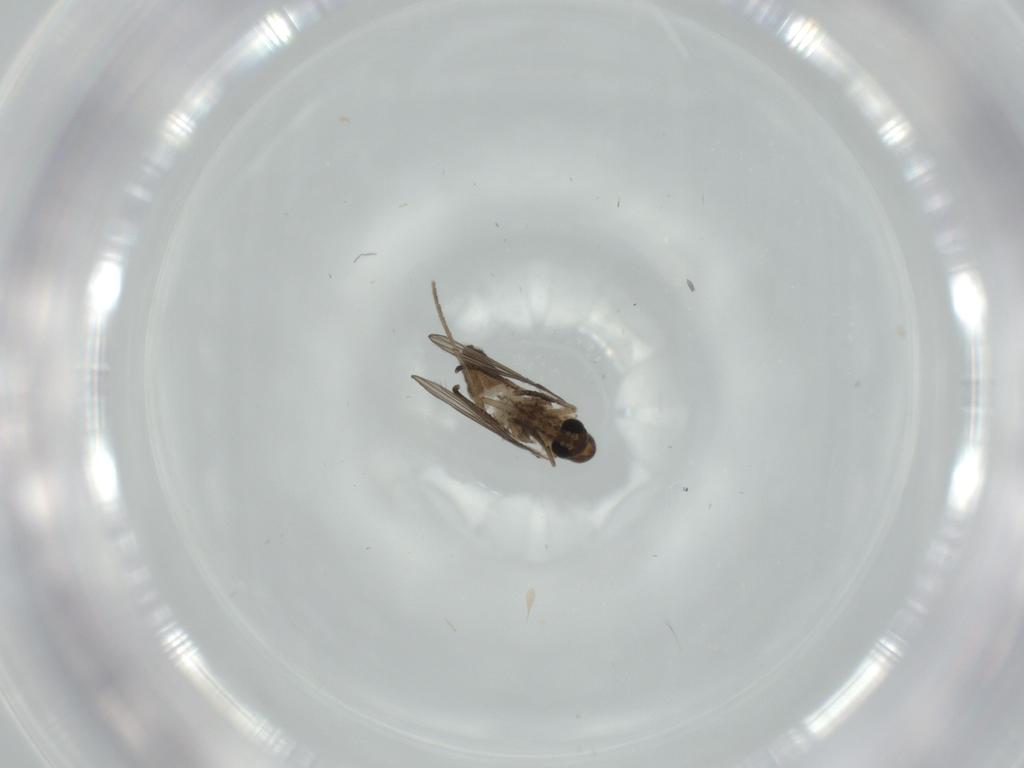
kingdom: Animalia
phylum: Arthropoda
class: Insecta
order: Diptera
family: Psychodidae
